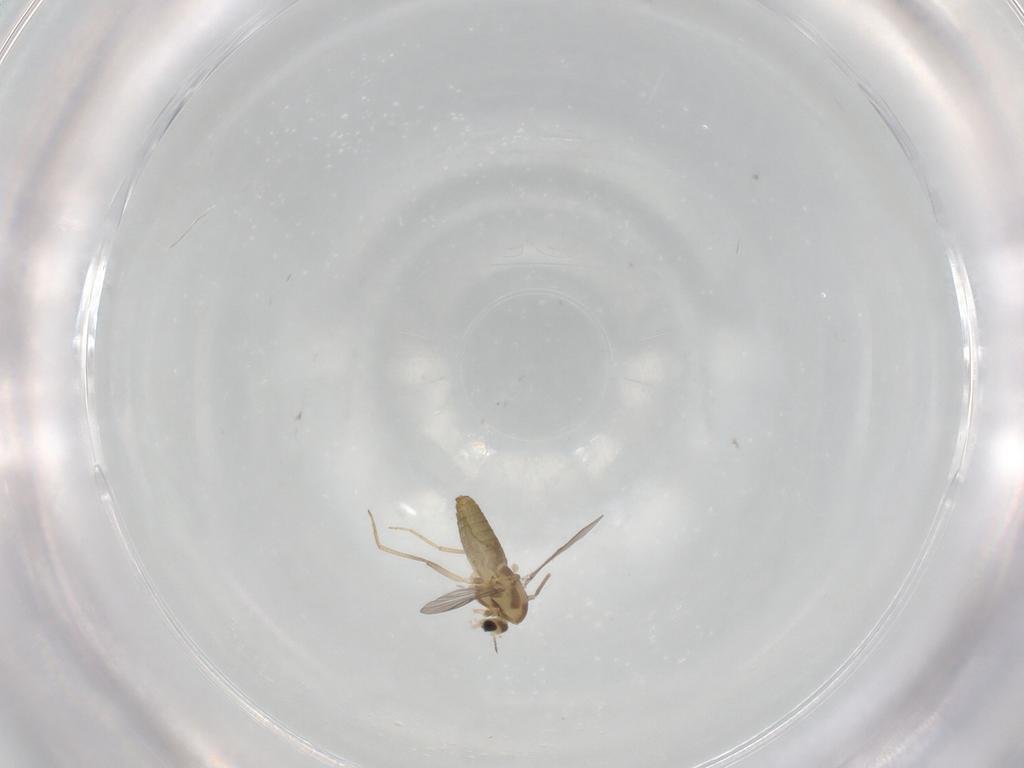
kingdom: Animalia
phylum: Arthropoda
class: Insecta
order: Diptera
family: Chironomidae
